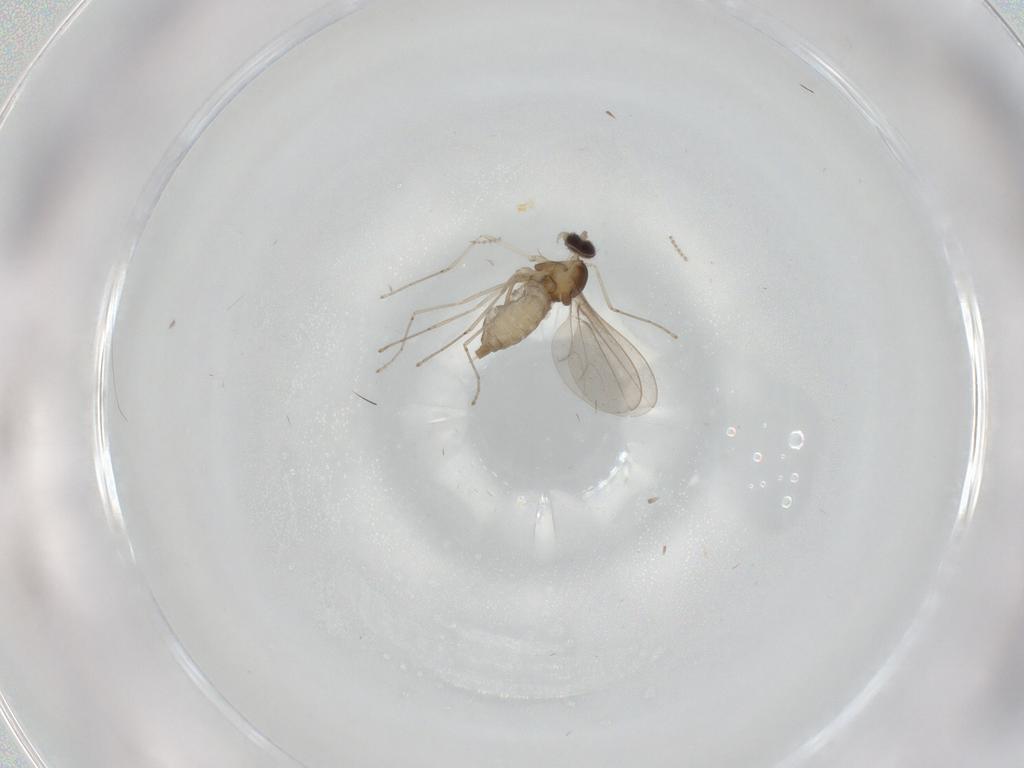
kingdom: Animalia
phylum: Arthropoda
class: Insecta
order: Diptera
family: Cecidomyiidae
